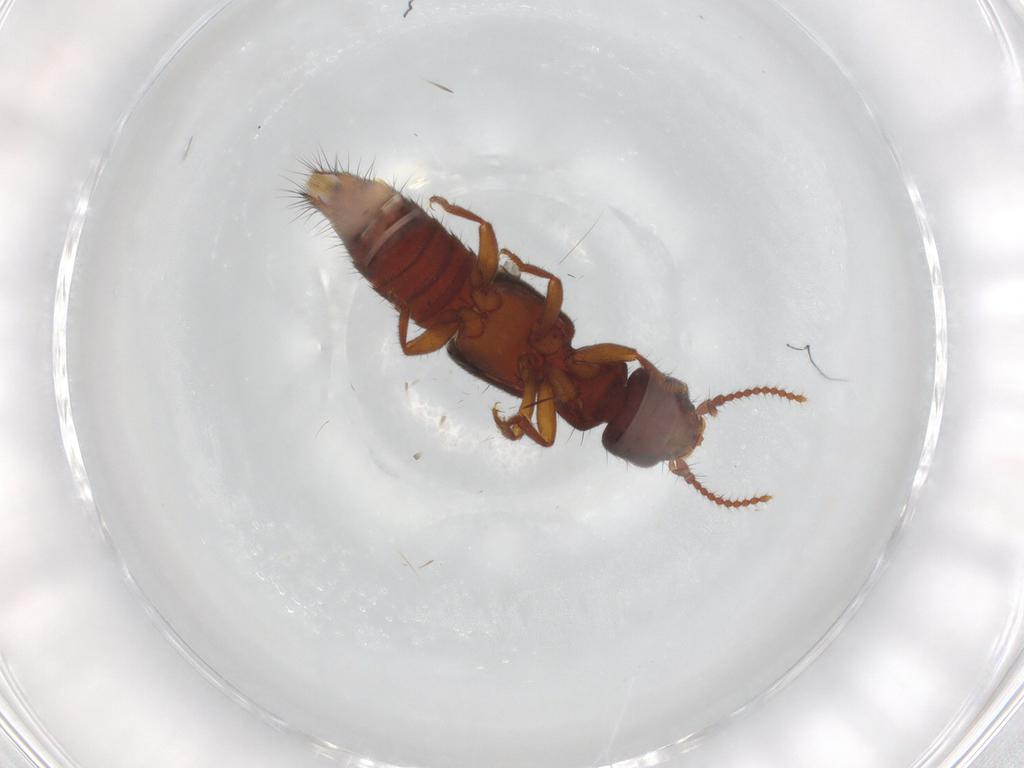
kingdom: Animalia
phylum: Arthropoda
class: Insecta
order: Coleoptera
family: Staphylinidae
